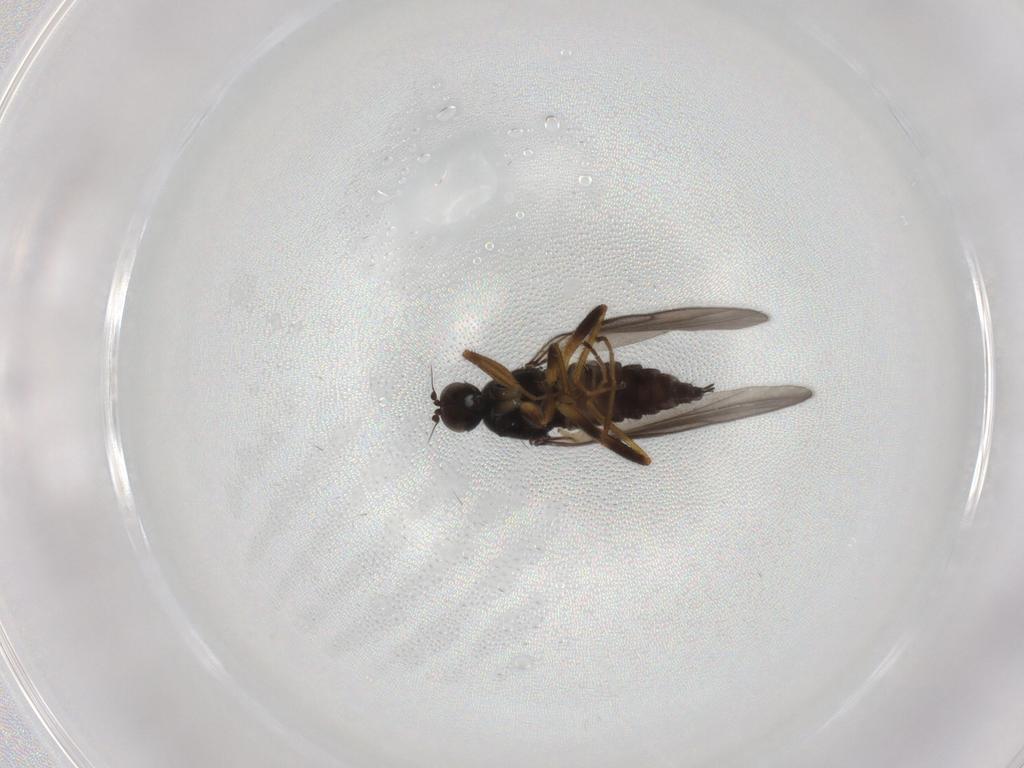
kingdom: Animalia
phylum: Arthropoda
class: Insecta
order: Diptera
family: Hybotidae
